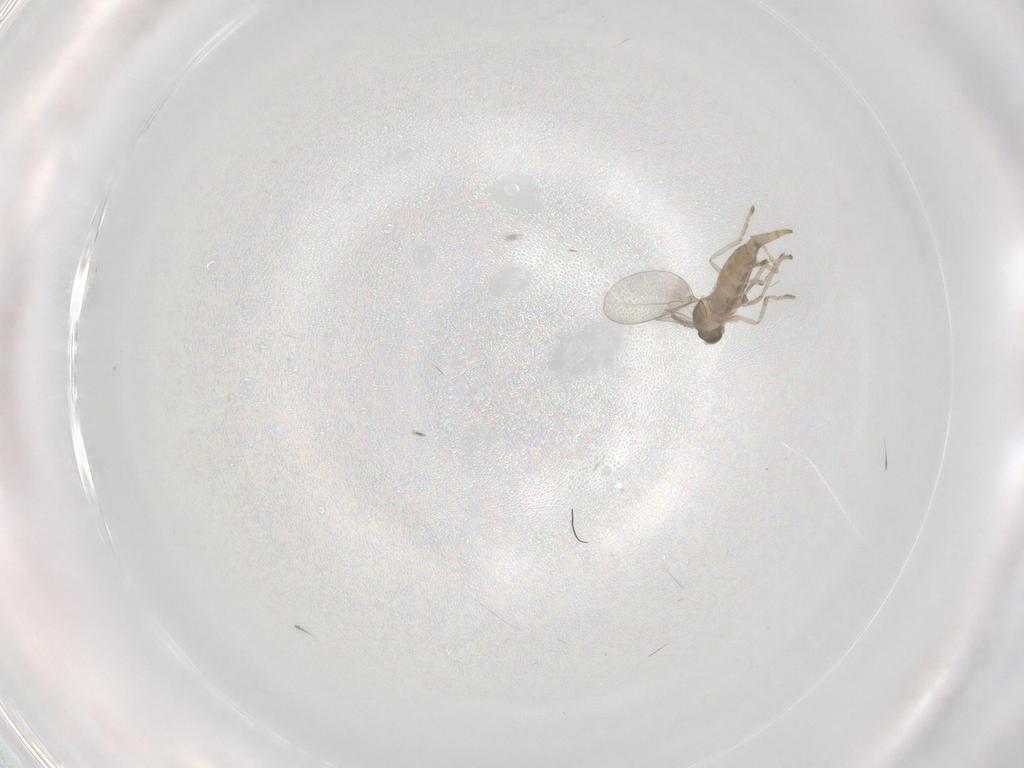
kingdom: Animalia
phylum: Arthropoda
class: Insecta
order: Diptera
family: Cecidomyiidae
